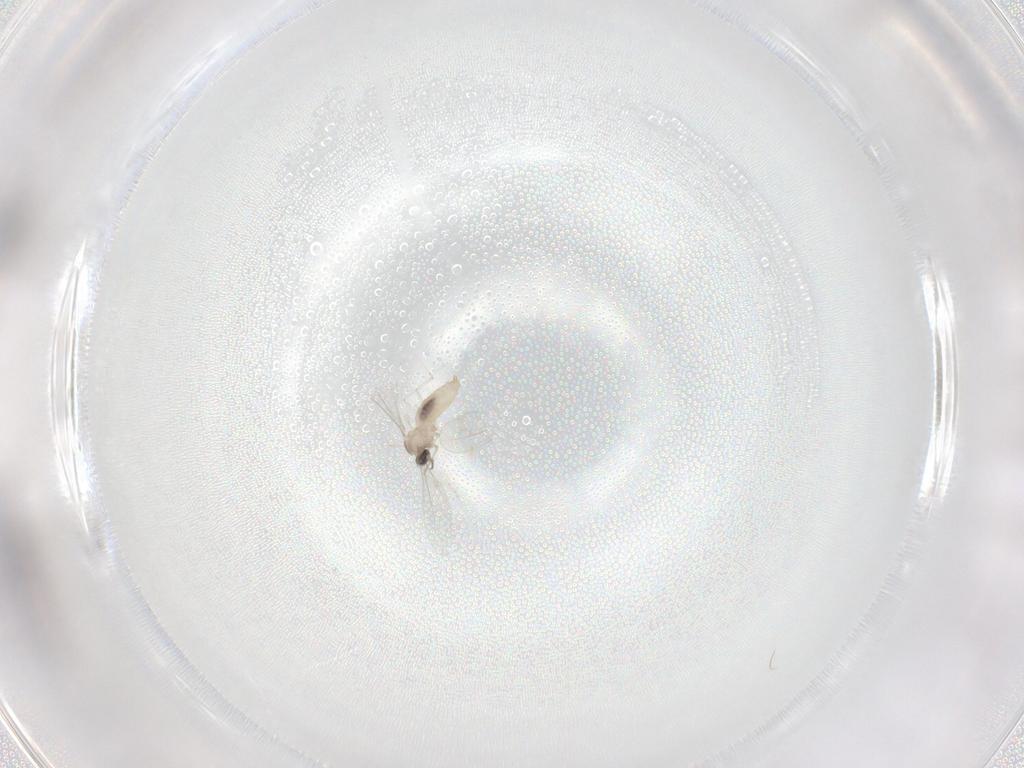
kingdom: Animalia
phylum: Arthropoda
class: Insecta
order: Diptera
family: Cecidomyiidae
